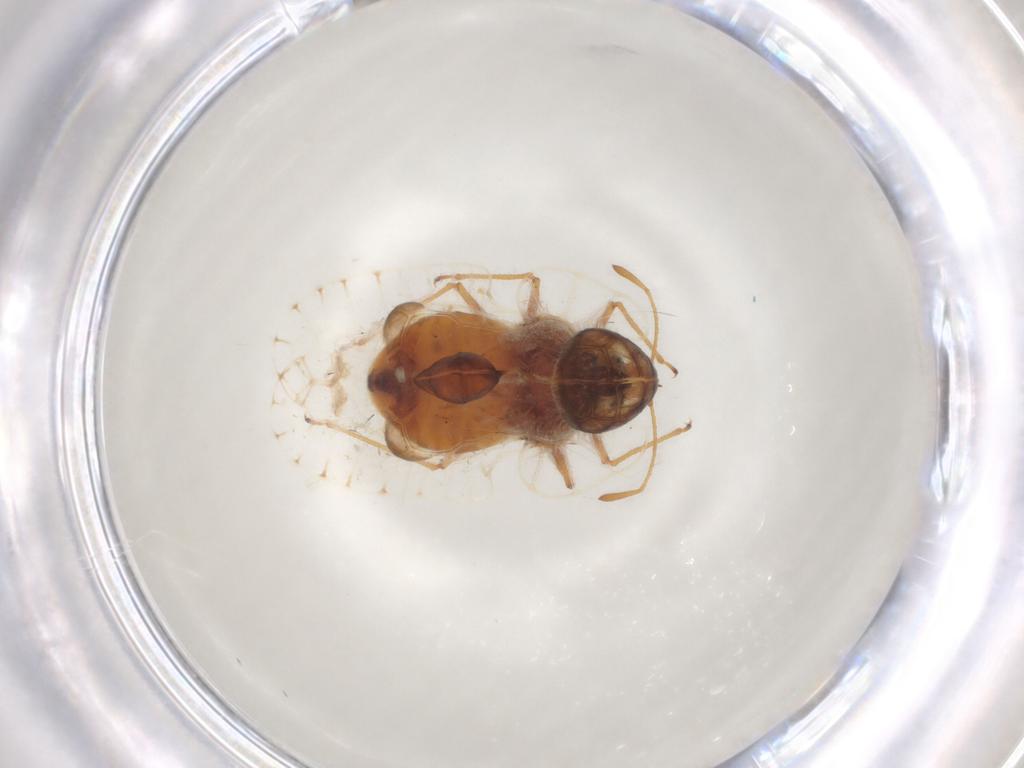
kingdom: Animalia
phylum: Arthropoda
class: Insecta
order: Hemiptera
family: Tingidae
